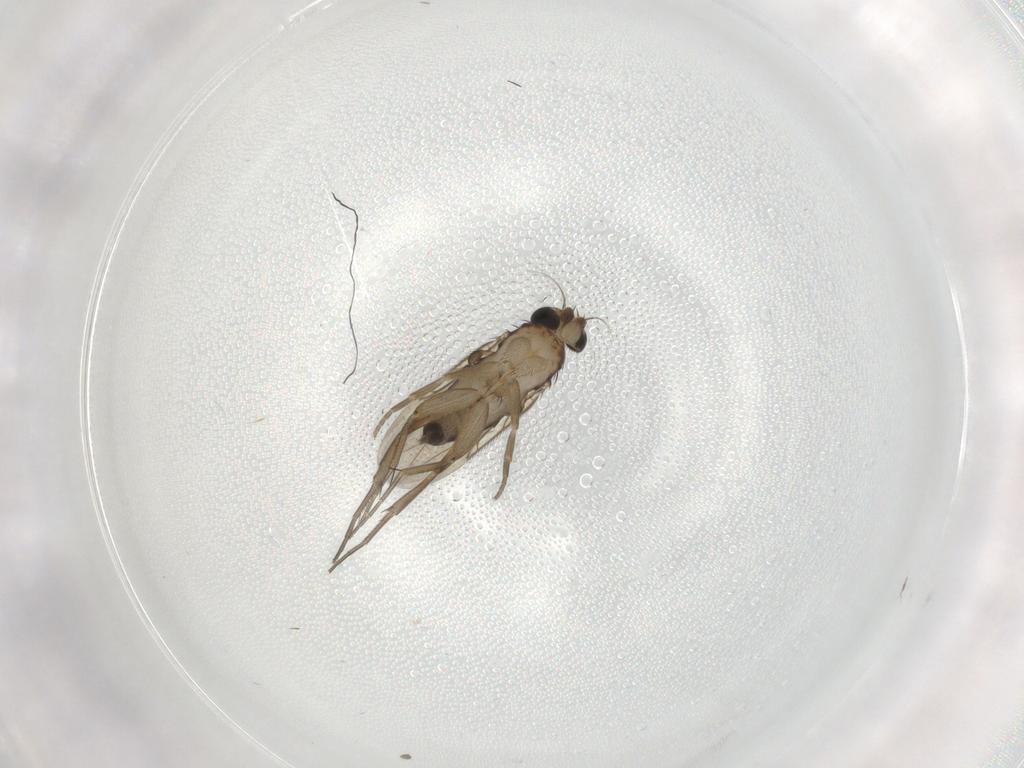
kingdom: Animalia
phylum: Arthropoda
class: Insecta
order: Diptera
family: Phoridae
